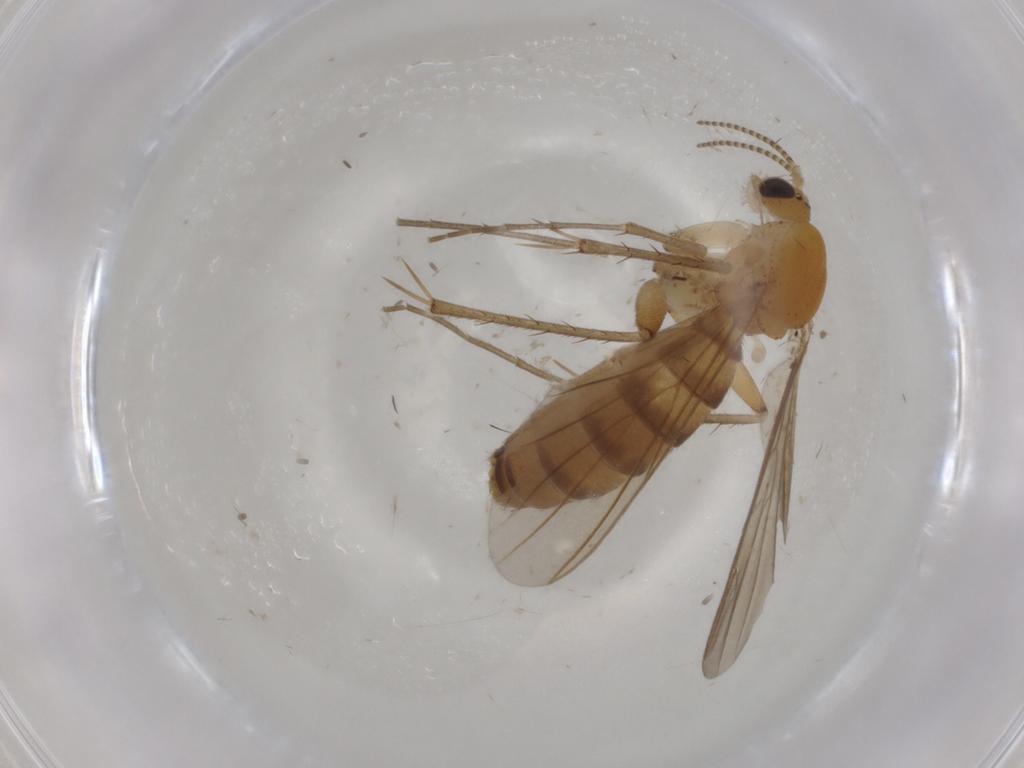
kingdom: Animalia
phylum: Arthropoda
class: Insecta
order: Diptera
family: Mycetophilidae
